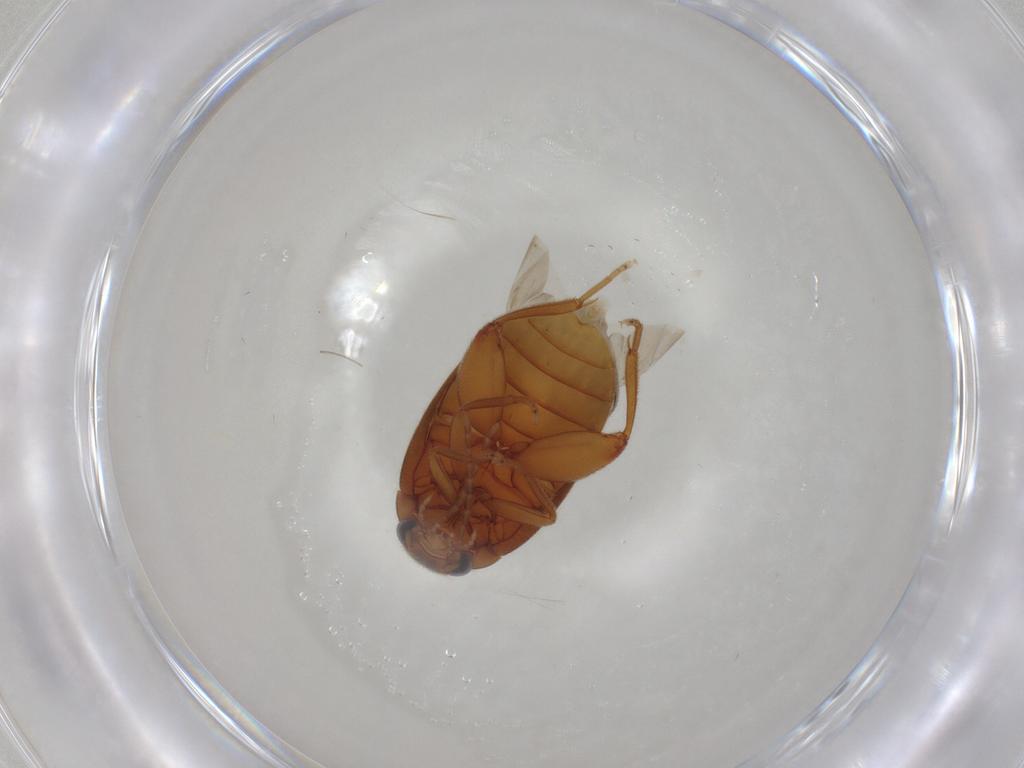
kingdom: Animalia
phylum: Arthropoda
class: Insecta
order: Coleoptera
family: Scirtidae
